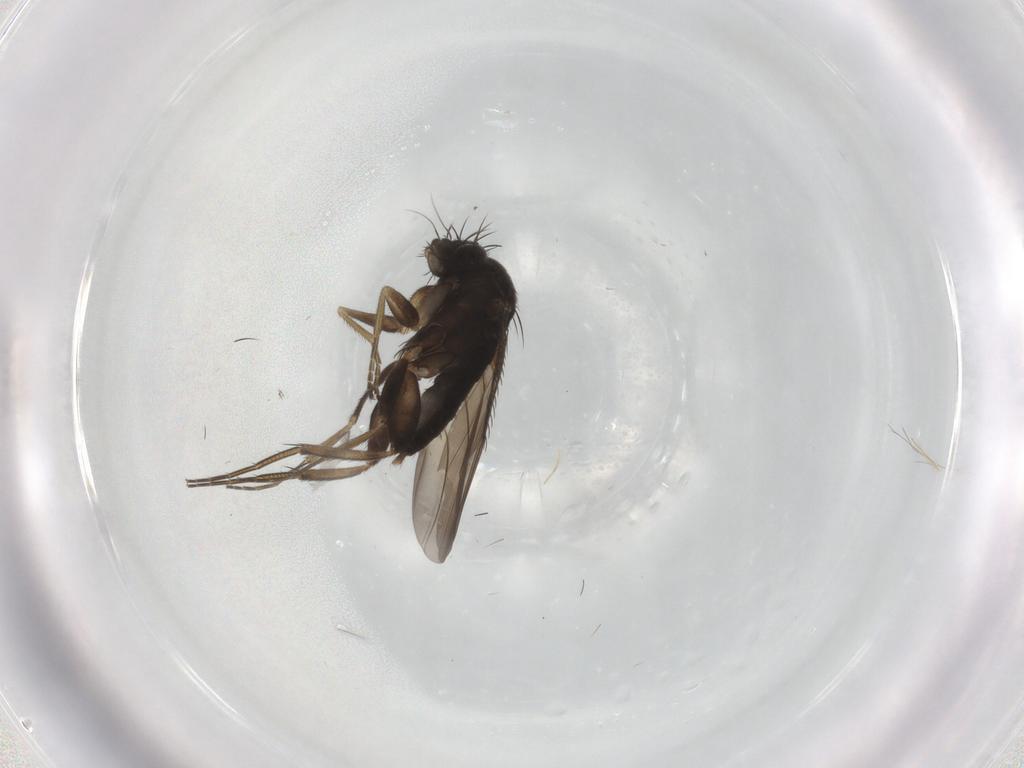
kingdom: Animalia
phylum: Arthropoda
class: Insecta
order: Diptera
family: Phoridae
